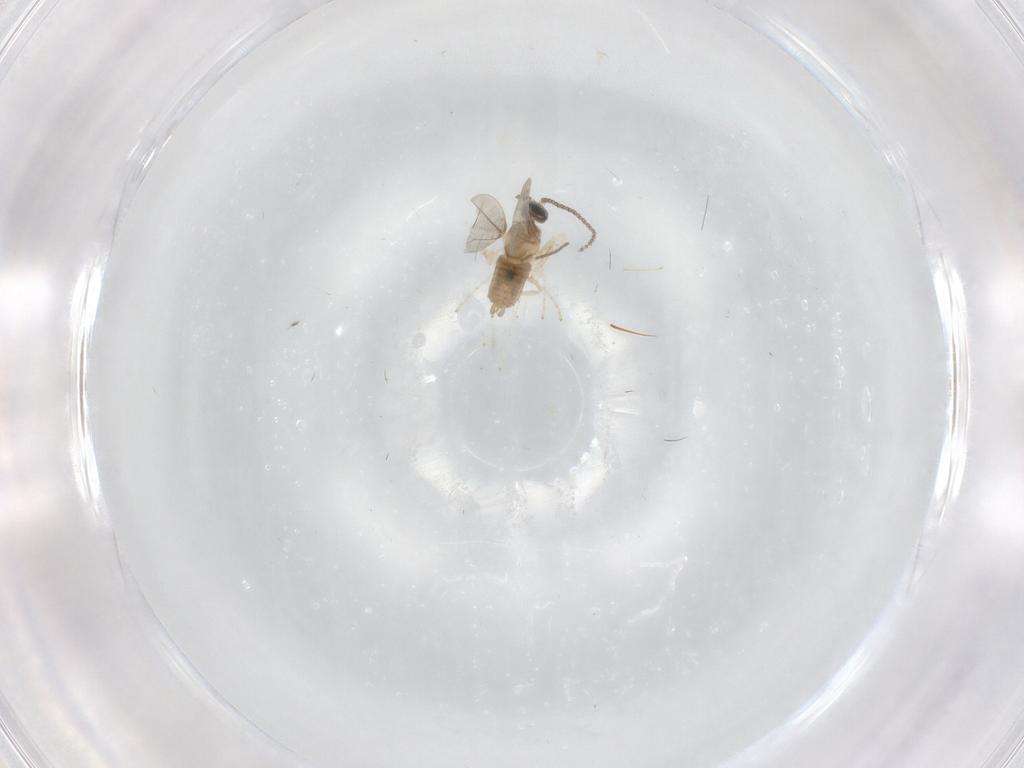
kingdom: Animalia
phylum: Arthropoda
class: Insecta
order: Diptera
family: Cecidomyiidae
